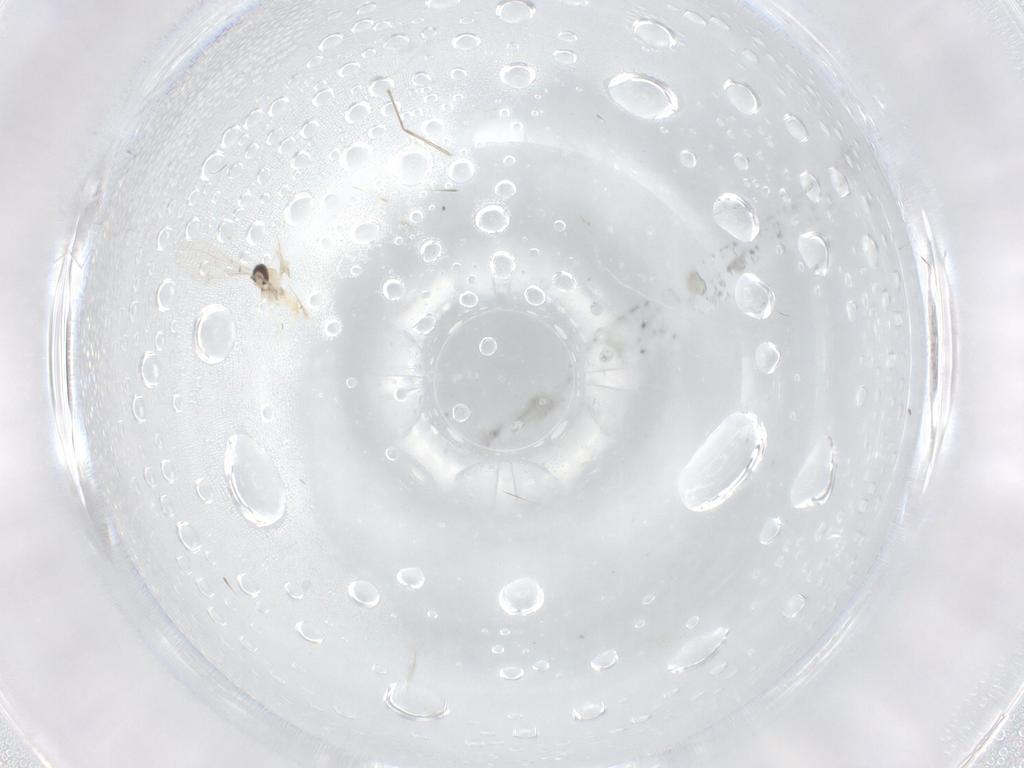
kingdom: Animalia
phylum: Arthropoda
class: Insecta
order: Diptera
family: Cecidomyiidae
